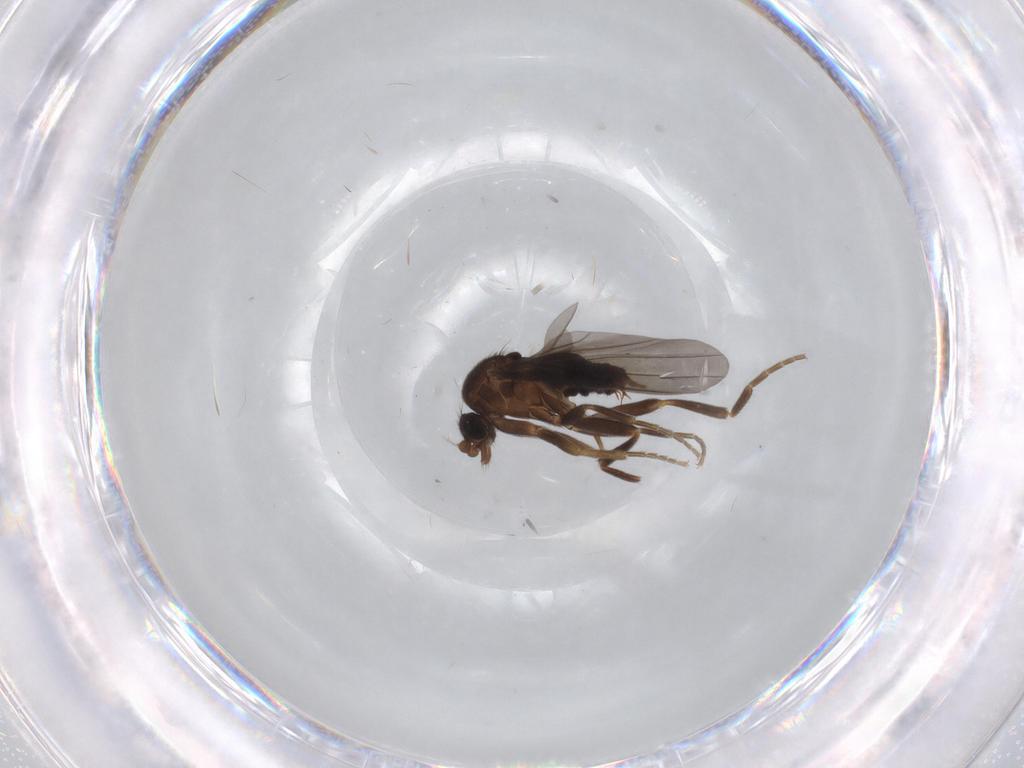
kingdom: Animalia
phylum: Arthropoda
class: Insecta
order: Diptera
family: Phoridae
